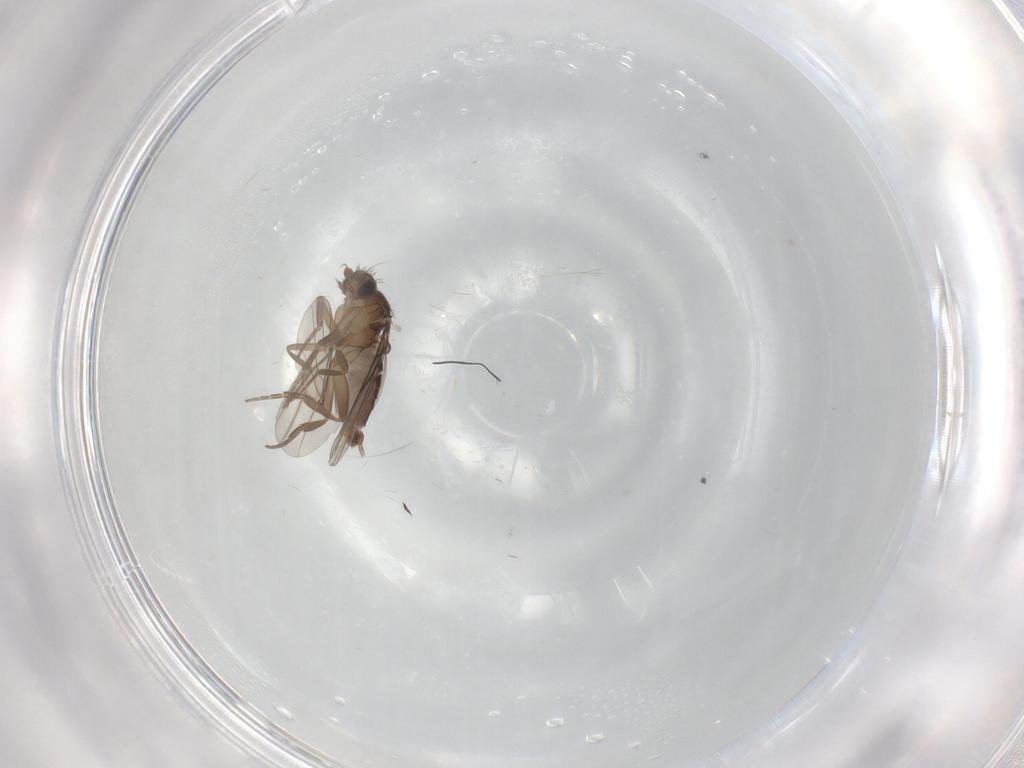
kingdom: Animalia
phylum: Arthropoda
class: Insecta
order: Diptera
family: Phoridae
